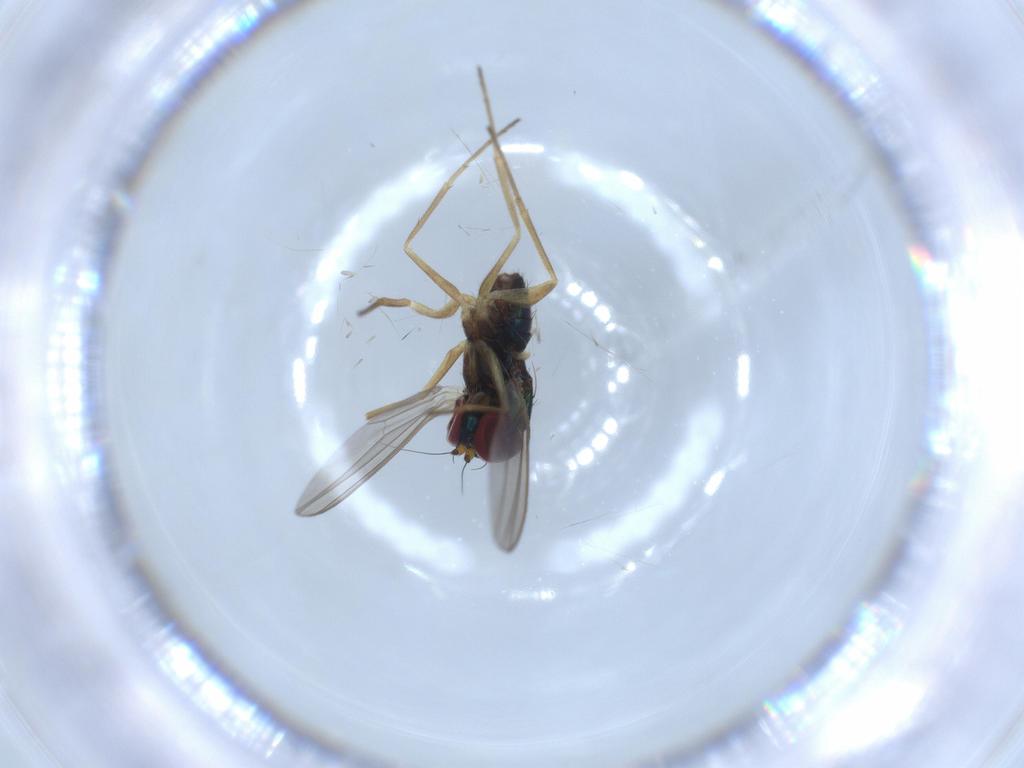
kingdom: Animalia
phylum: Arthropoda
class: Insecta
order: Diptera
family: Dolichopodidae
